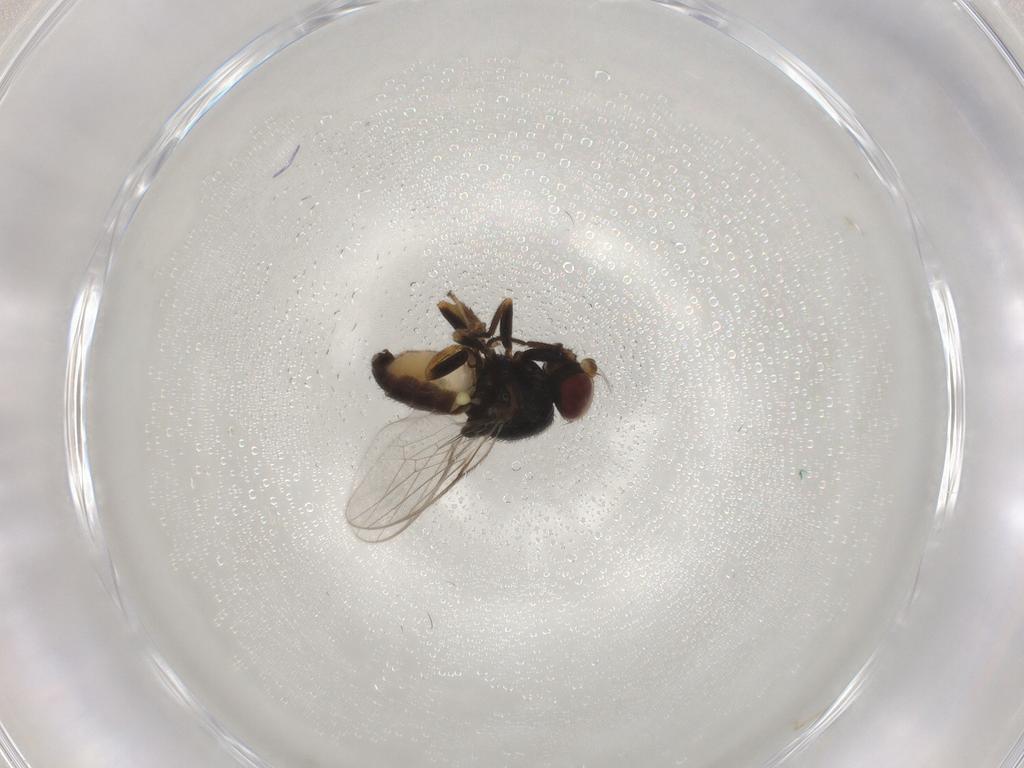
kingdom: Animalia
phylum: Arthropoda
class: Insecta
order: Diptera
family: Chloropidae
